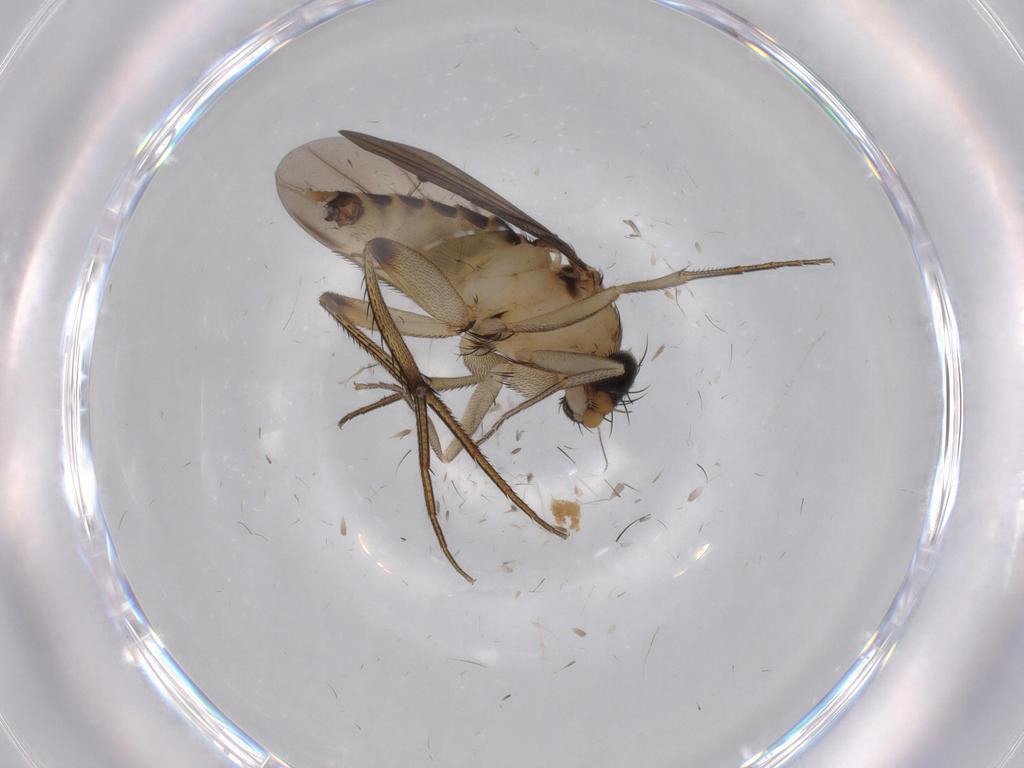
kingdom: Animalia
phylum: Arthropoda
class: Insecta
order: Diptera
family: Phoridae
